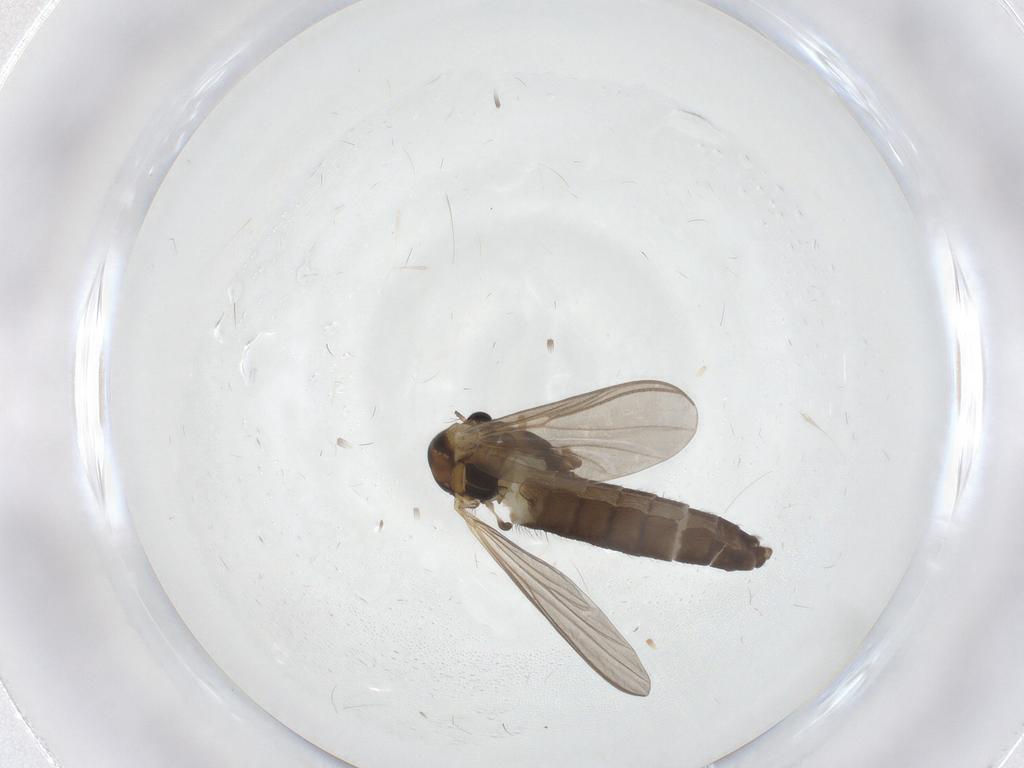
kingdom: Animalia
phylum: Arthropoda
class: Insecta
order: Diptera
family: Chironomidae
